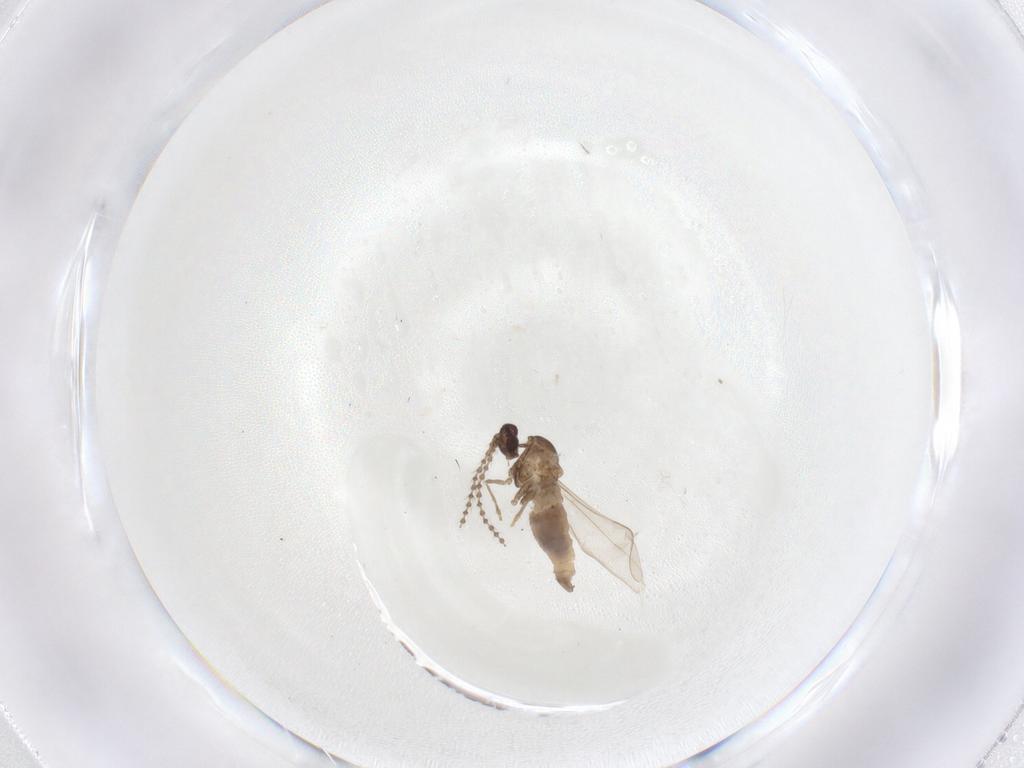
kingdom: Animalia
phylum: Arthropoda
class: Insecta
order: Diptera
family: Cecidomyiidae
